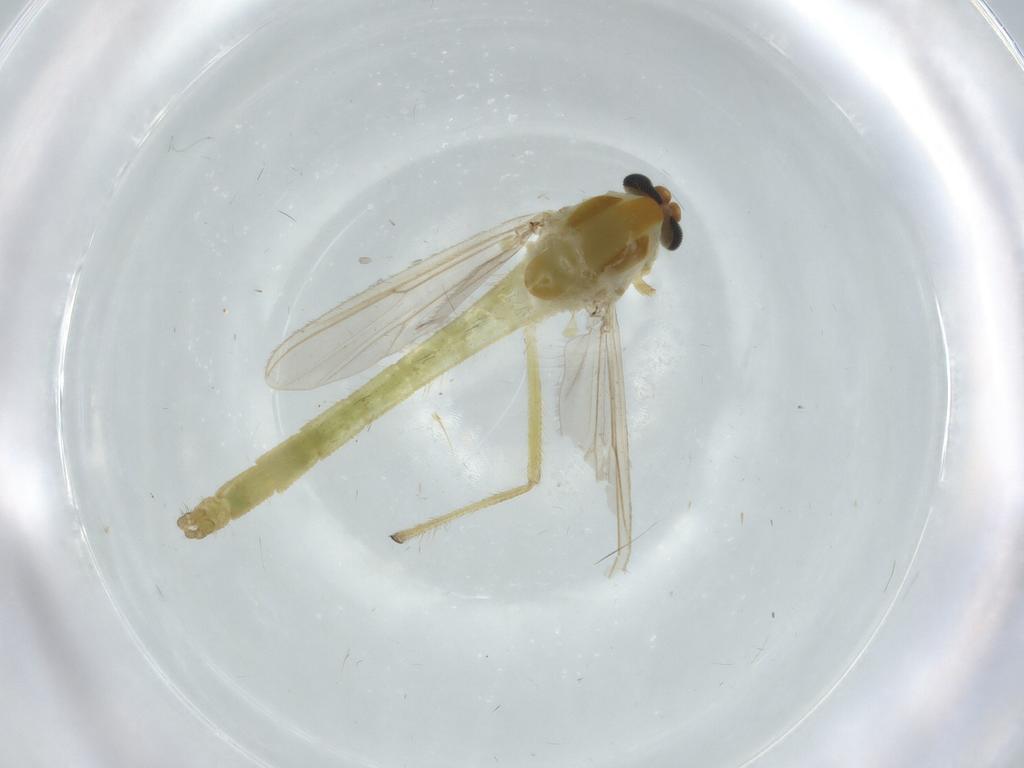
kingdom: Animalia
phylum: Arthropoda
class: Insecta
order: Diptera
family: Chironomidae
